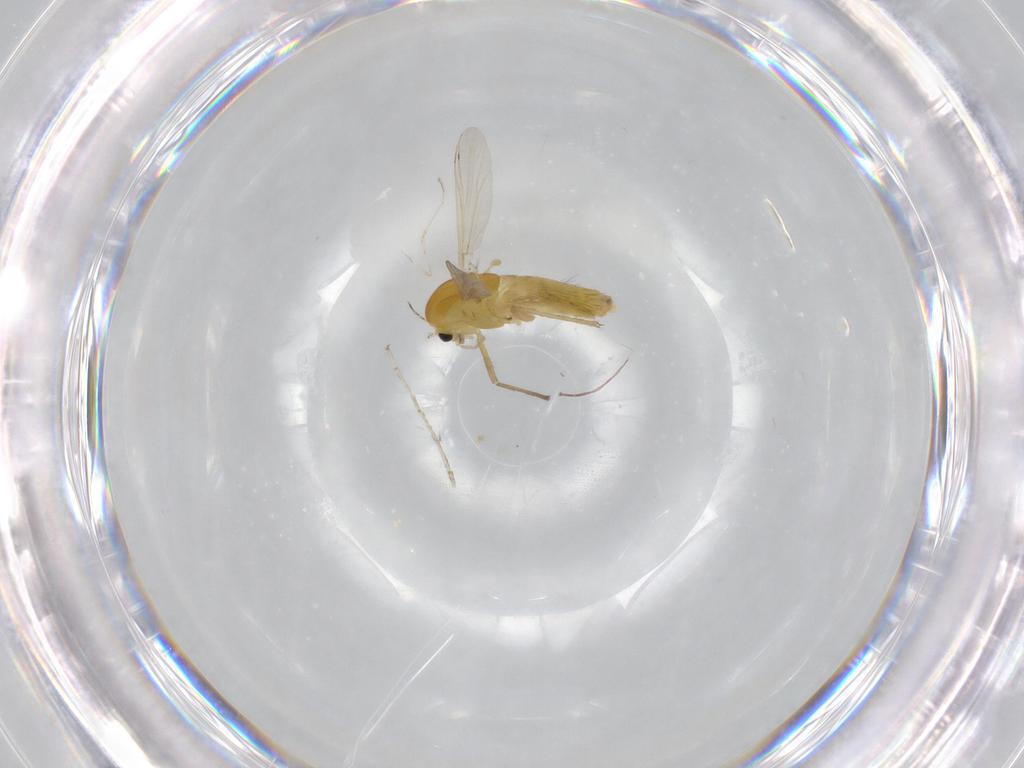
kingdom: Animalia
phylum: Arthropoda
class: Insecta
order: Diptera
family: Chironomidae
